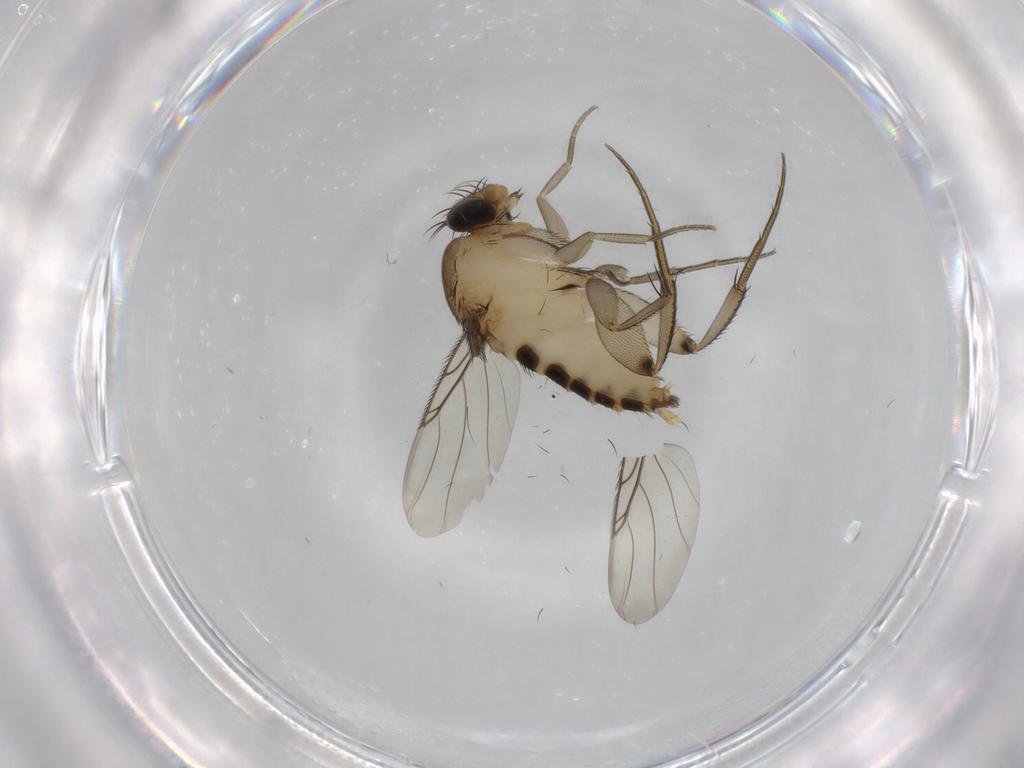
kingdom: Animalia
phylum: Arthropoda
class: Insecta
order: Diptera
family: Phoridae
